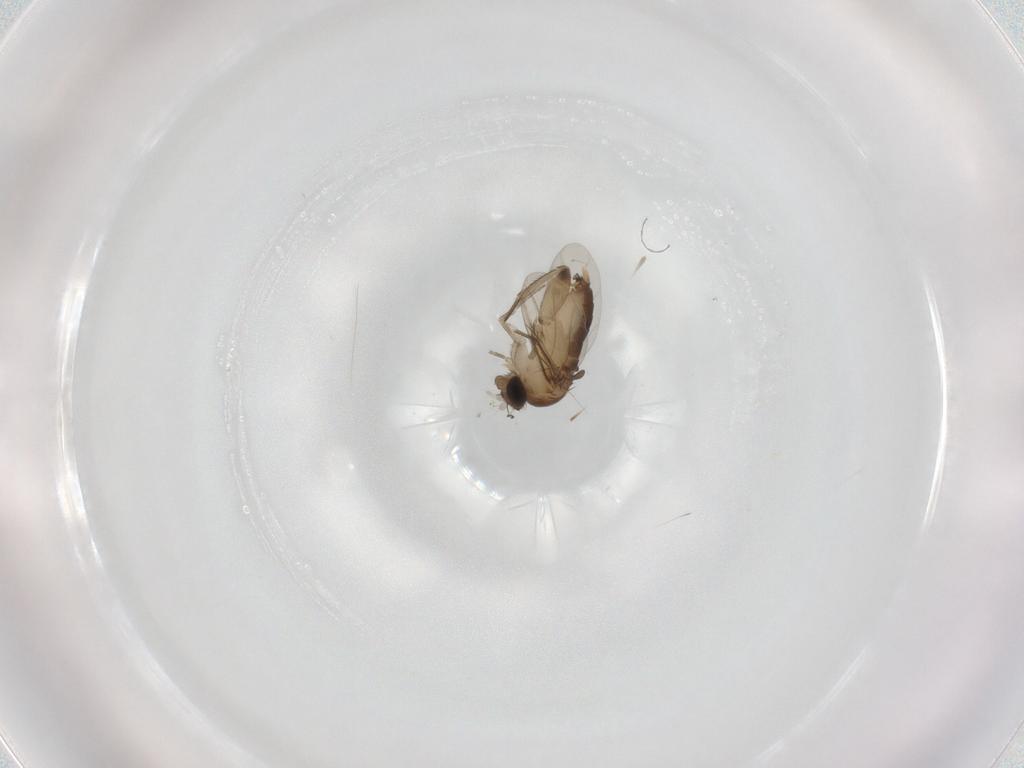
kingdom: Animalia
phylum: Arthropoda
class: Insecta
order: Diptera
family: Phoridae
